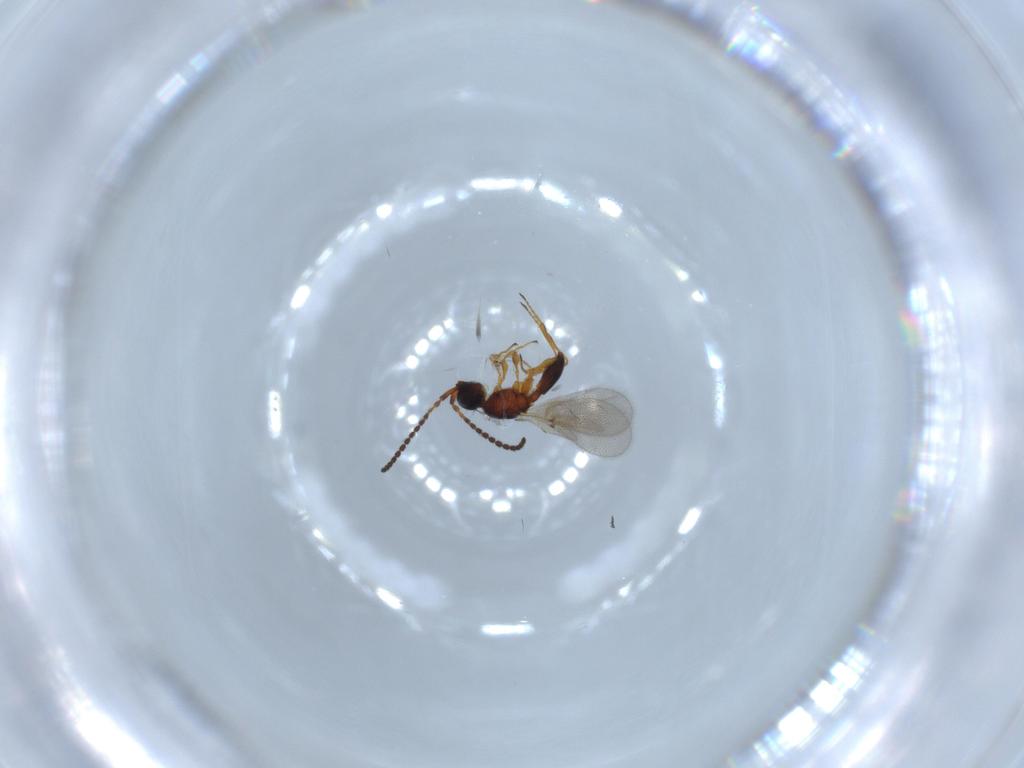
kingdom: Animalia
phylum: Arthropoda
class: Insecta
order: Hymenoptera
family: Diapriidae
